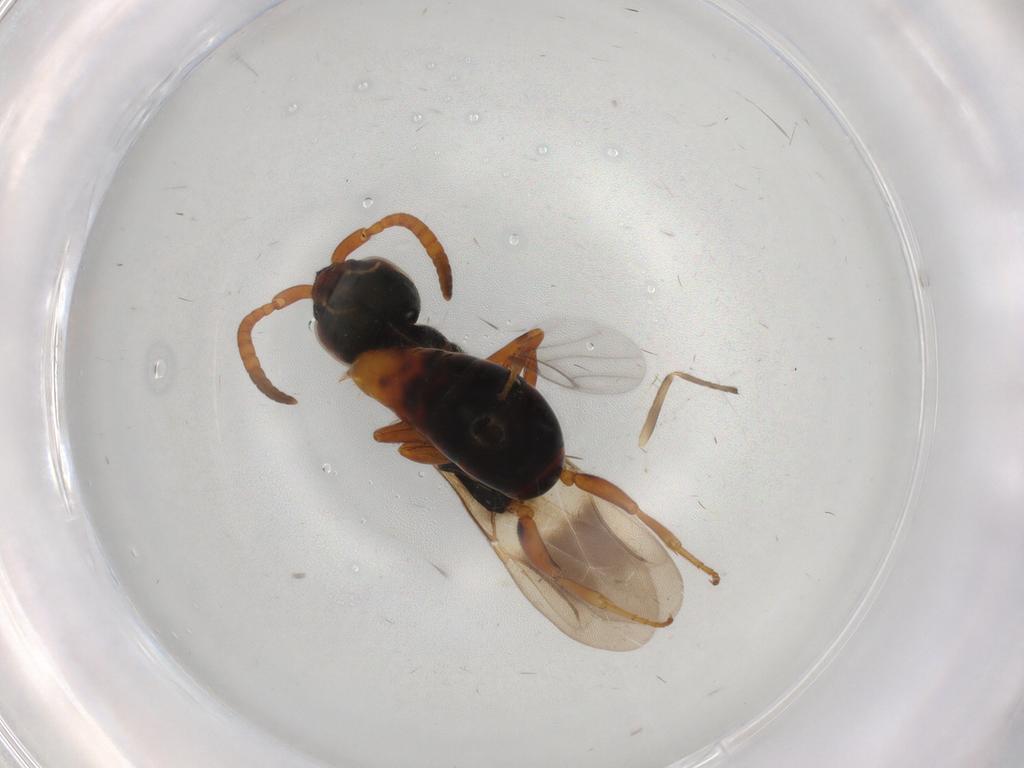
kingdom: Animalia
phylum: Arthropoda
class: Insecta
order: Hymenoptera
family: Bethylidae
